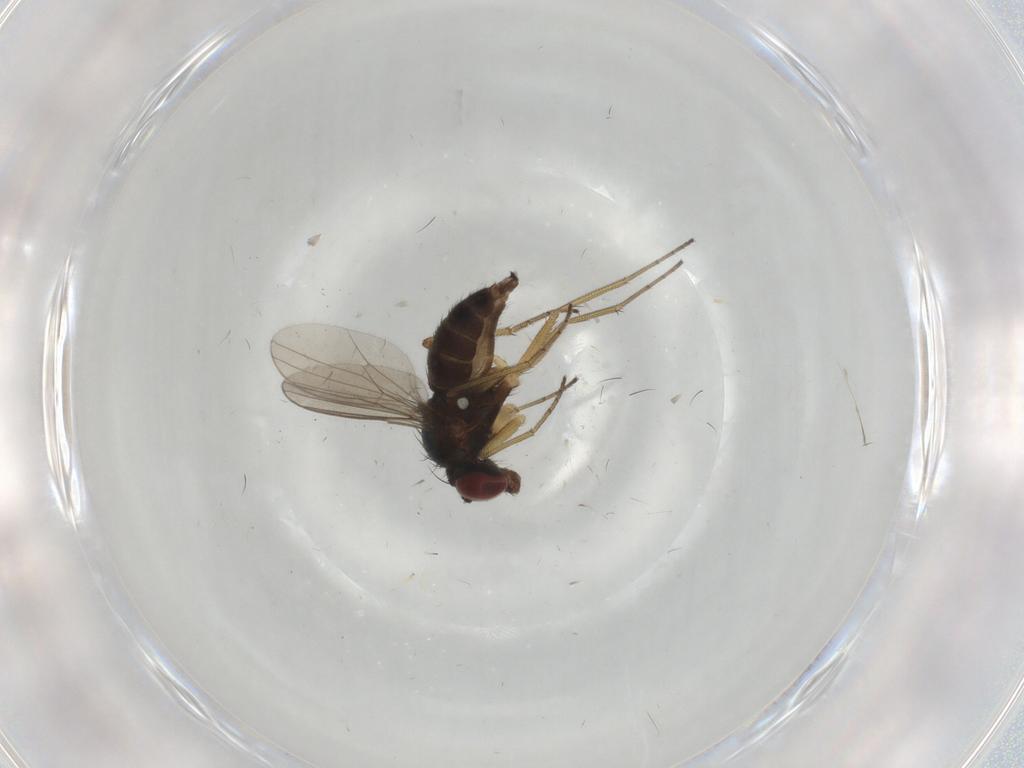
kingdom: Animalia
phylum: Arthropoda
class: Insecta
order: Diptera
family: Dolichopodidae
